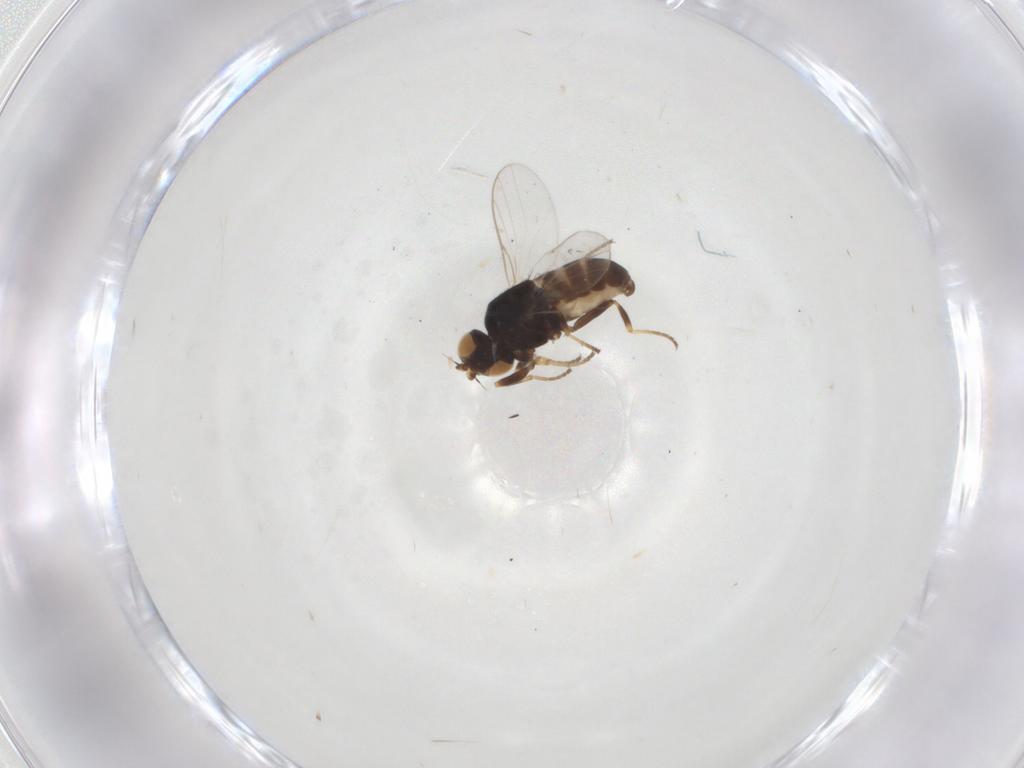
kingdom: Animalia
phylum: Arthropoda
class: Insecta
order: Diptera
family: Chloropidae
